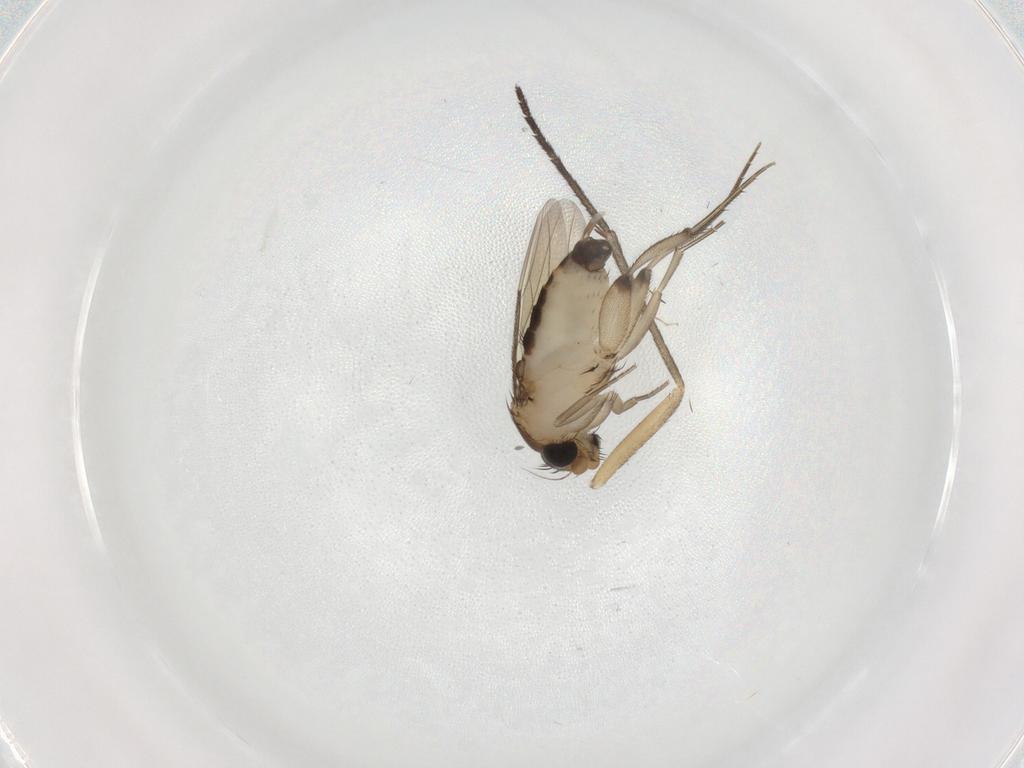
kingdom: Animalia
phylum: Arthropoda
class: Insecta
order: Diptera
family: Sciaridae
